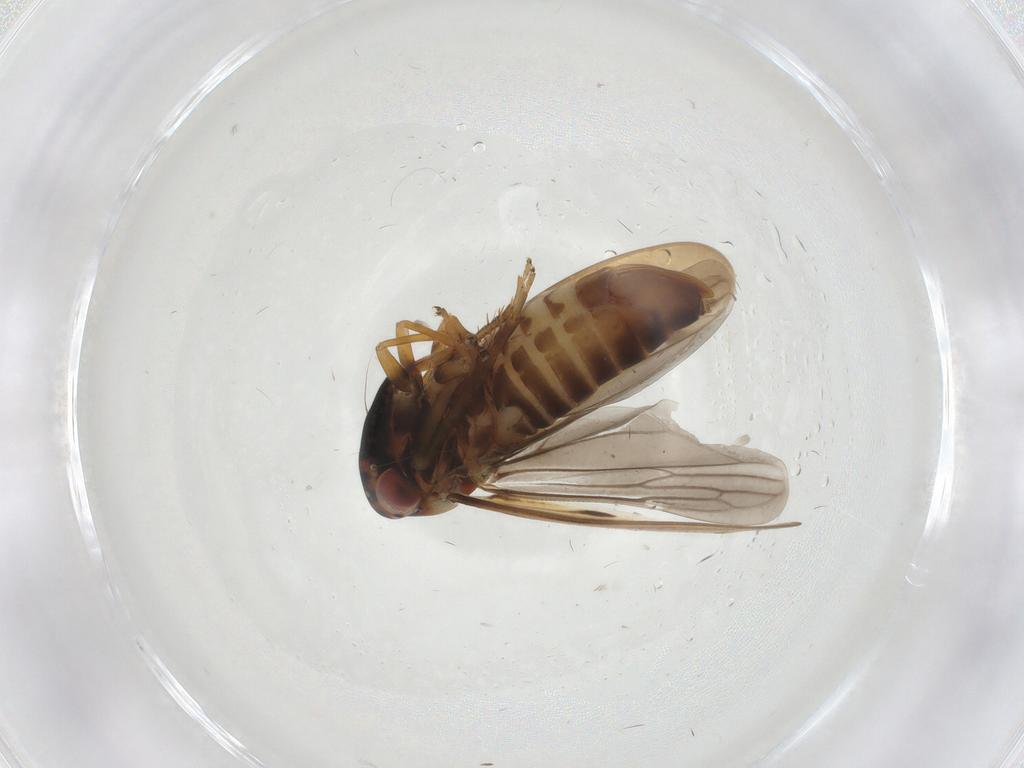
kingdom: Animalia
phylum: Arthropoda
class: Insecta
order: Hemiptera
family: Cicadellidae
